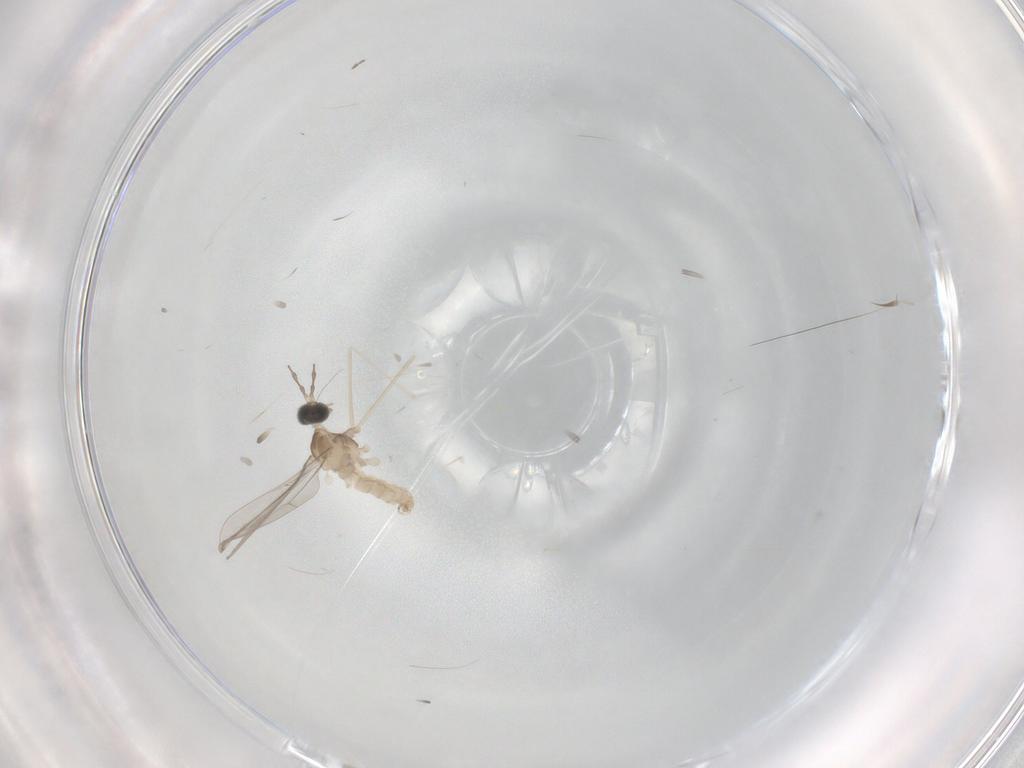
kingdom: Animalia
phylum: Arthropoda
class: Insecta
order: Diptera
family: Cecidomyiidae
